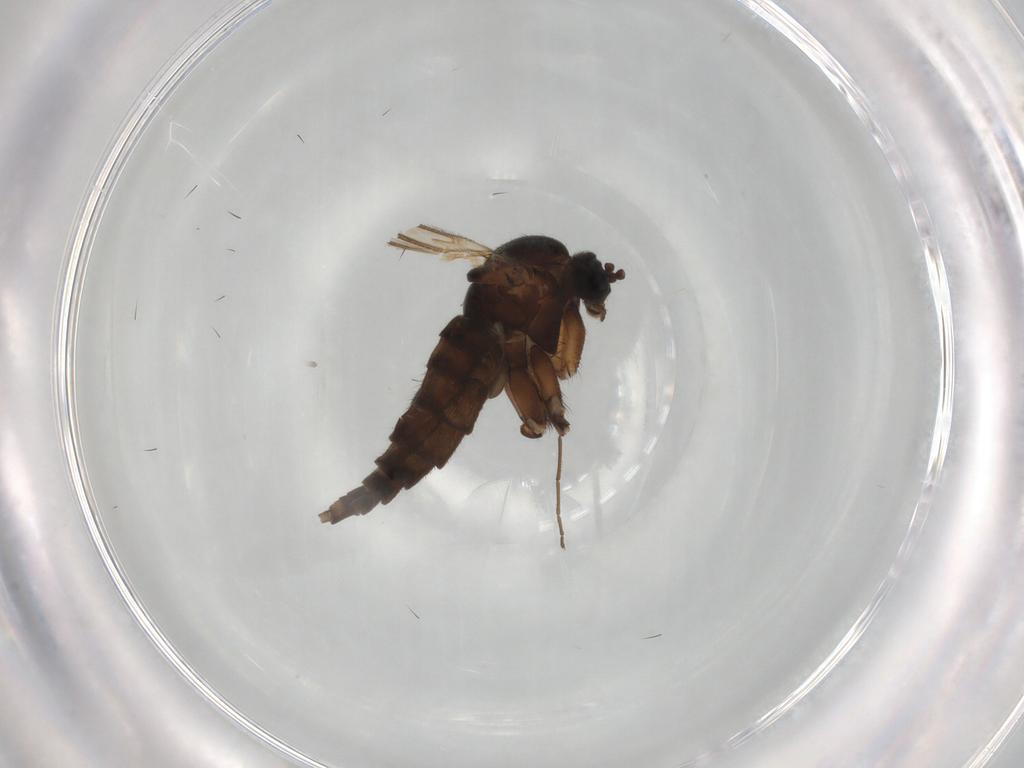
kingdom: Animalia
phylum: Arthropoda
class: Insecta
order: Diptera
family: Sciaridae
